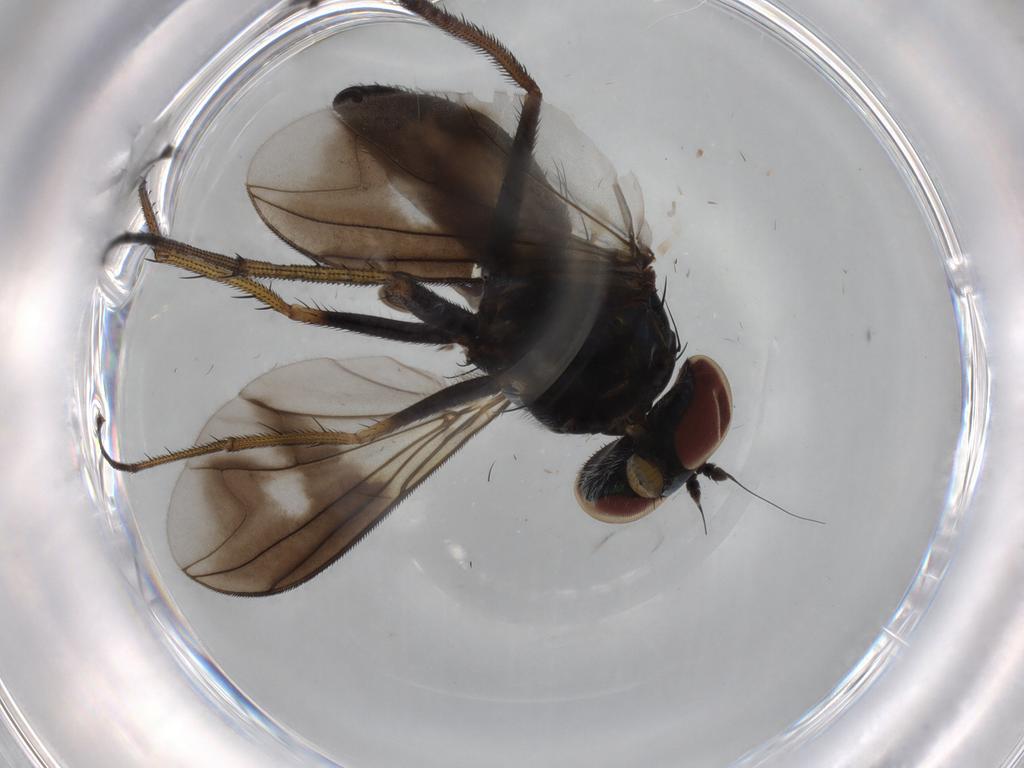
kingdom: Animalia
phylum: Arthropoda
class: Insecta
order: Diptera
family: Dolichopodidae
